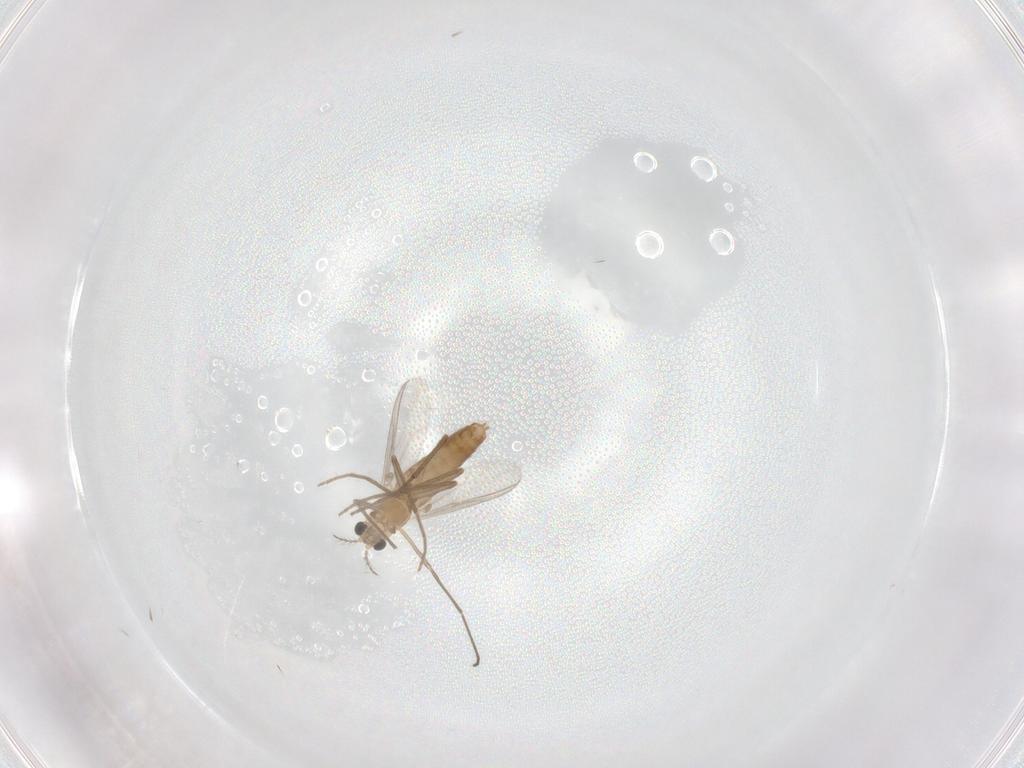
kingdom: Animalia
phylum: Arthropoda
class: Insecta
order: Diptera
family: Chironomidae
